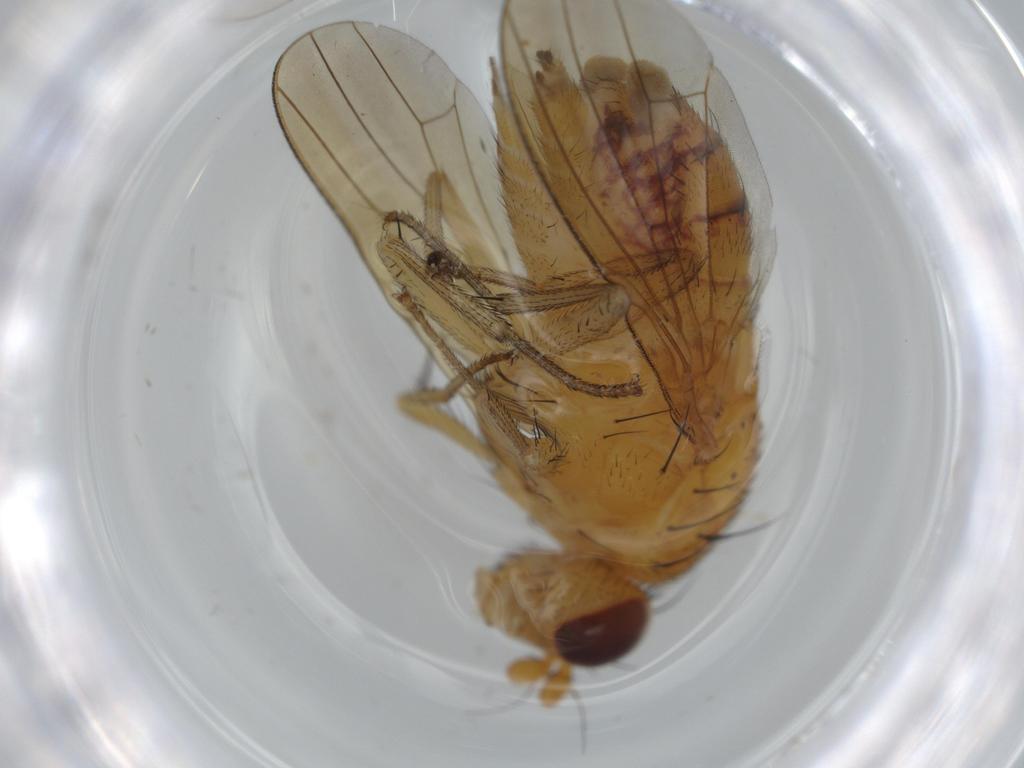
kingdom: Animalia
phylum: Arthropoda
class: Insecta
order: Diptera
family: Sciaridae
